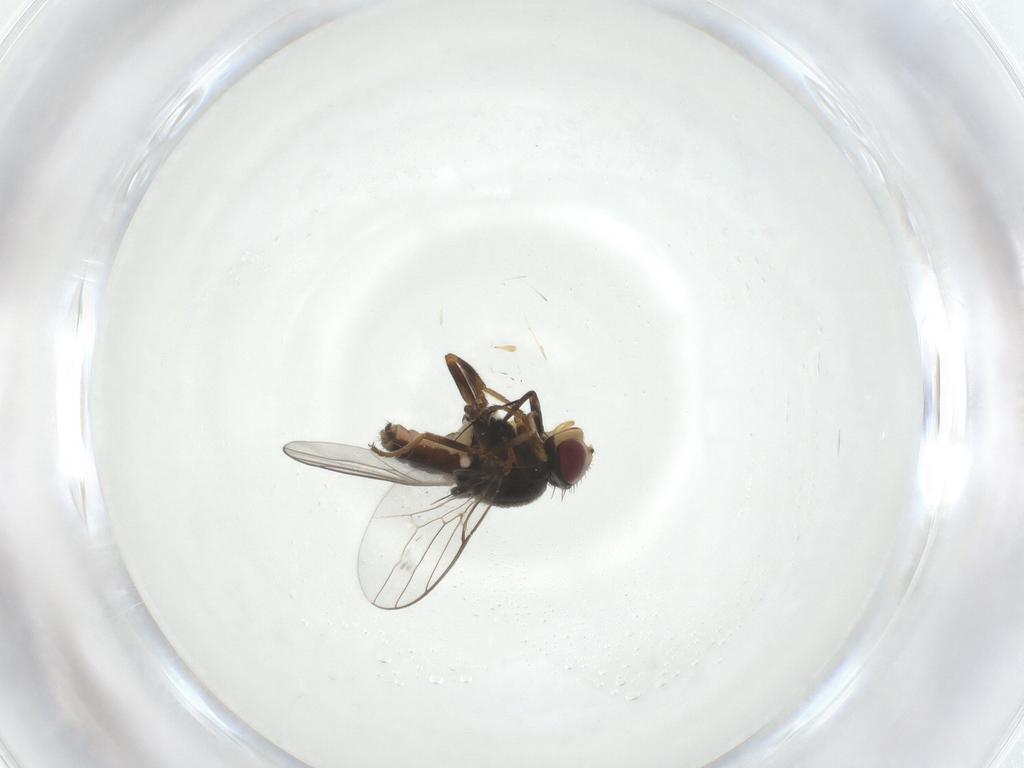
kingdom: Animalia
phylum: Arthropoda
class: Insecta
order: Diptera
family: Chloropidae
